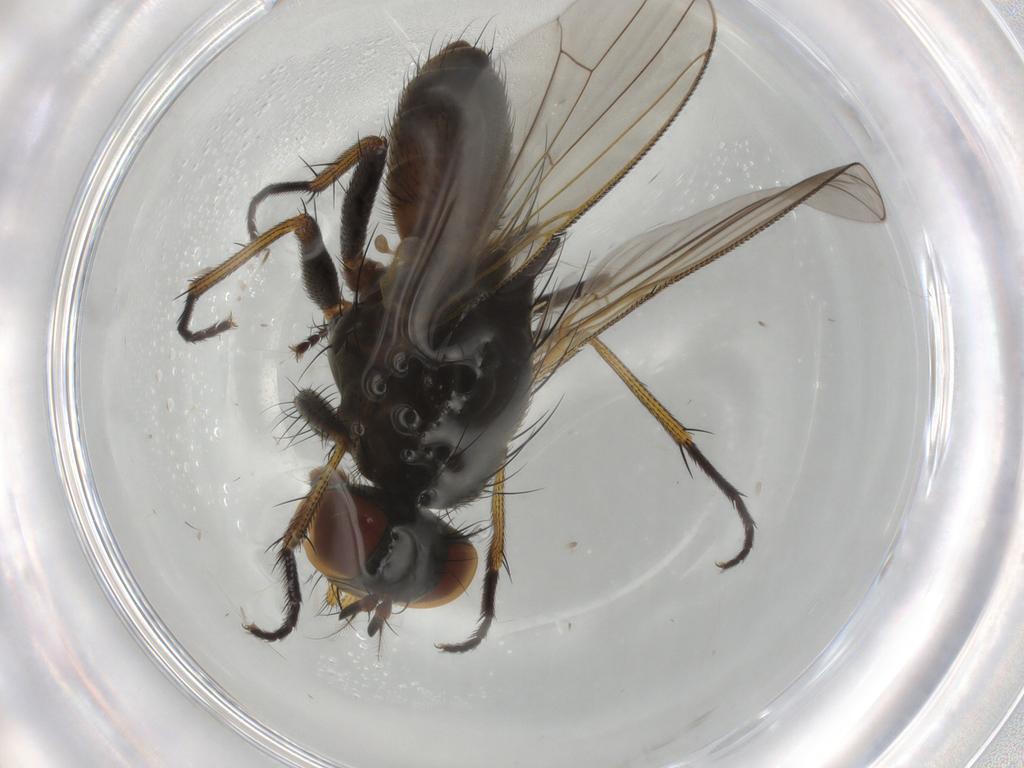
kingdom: Animalia
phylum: Arthropoda
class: Insecta
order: Diptera
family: Muscidae
